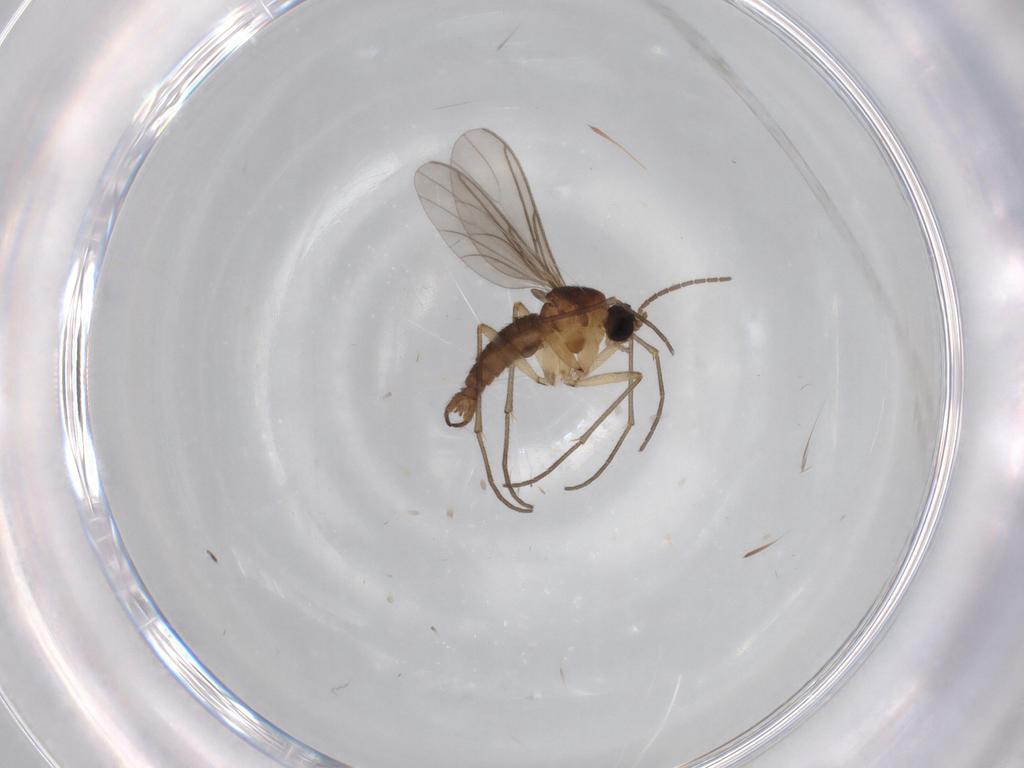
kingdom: Animalia
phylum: Arthropoda
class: Insecta
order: Diptera
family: Sciaridae
